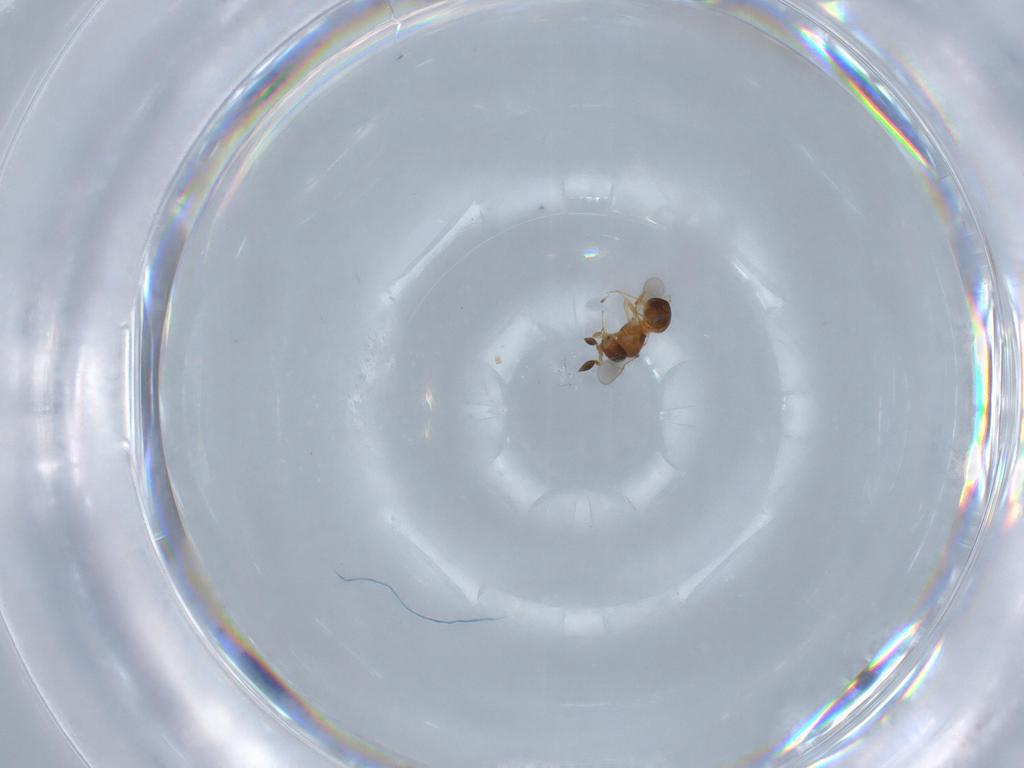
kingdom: Animalia
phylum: Arthropoda
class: Insecta
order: Hymenoptera
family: Scelionidae
